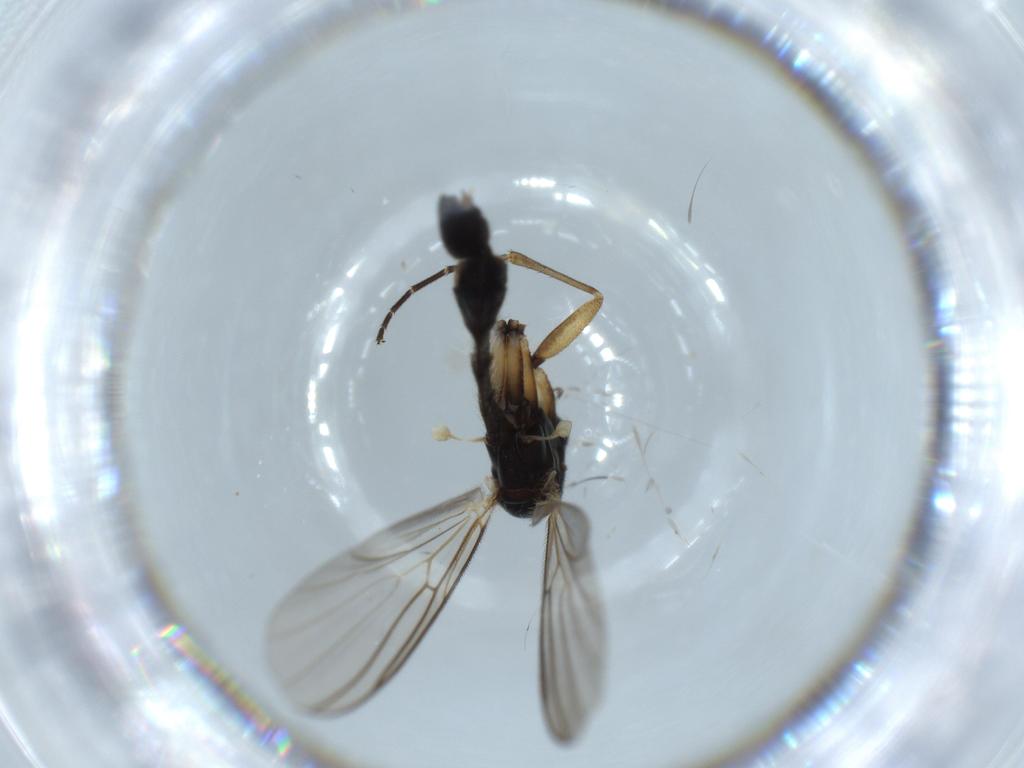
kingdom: Animalia
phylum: Arthropoda
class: Insecta
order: Diptera
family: Mycetophilidae
